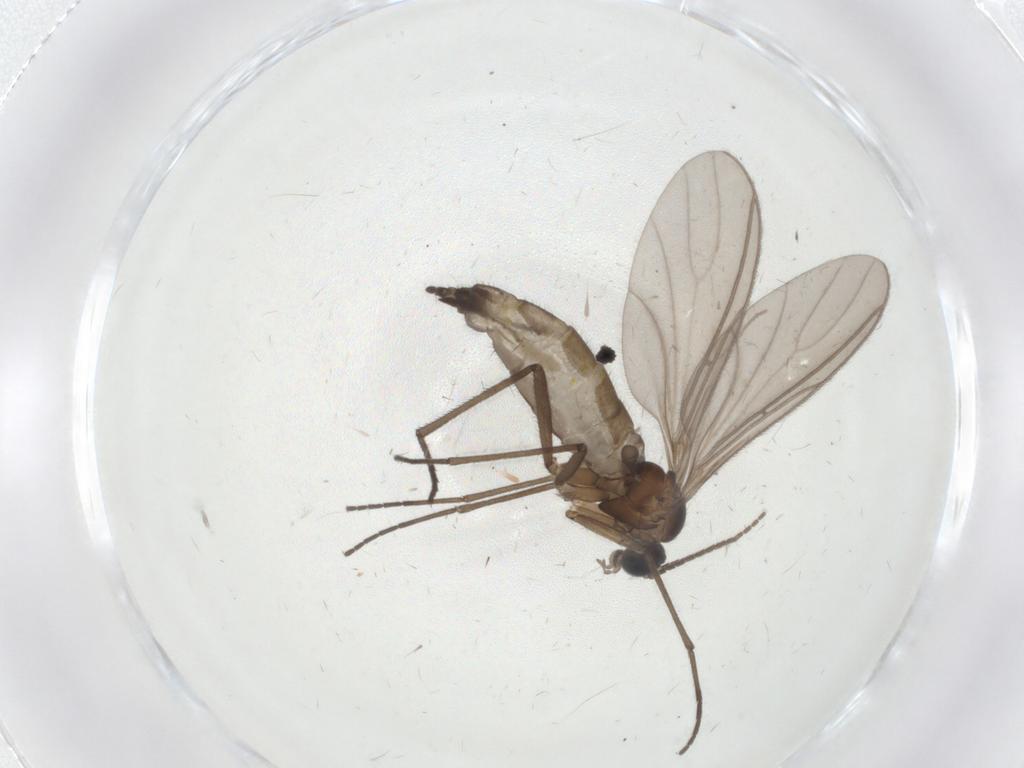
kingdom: Animalia
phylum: Arthropoda
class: Insecta
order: Diptera
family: Sciaridae
